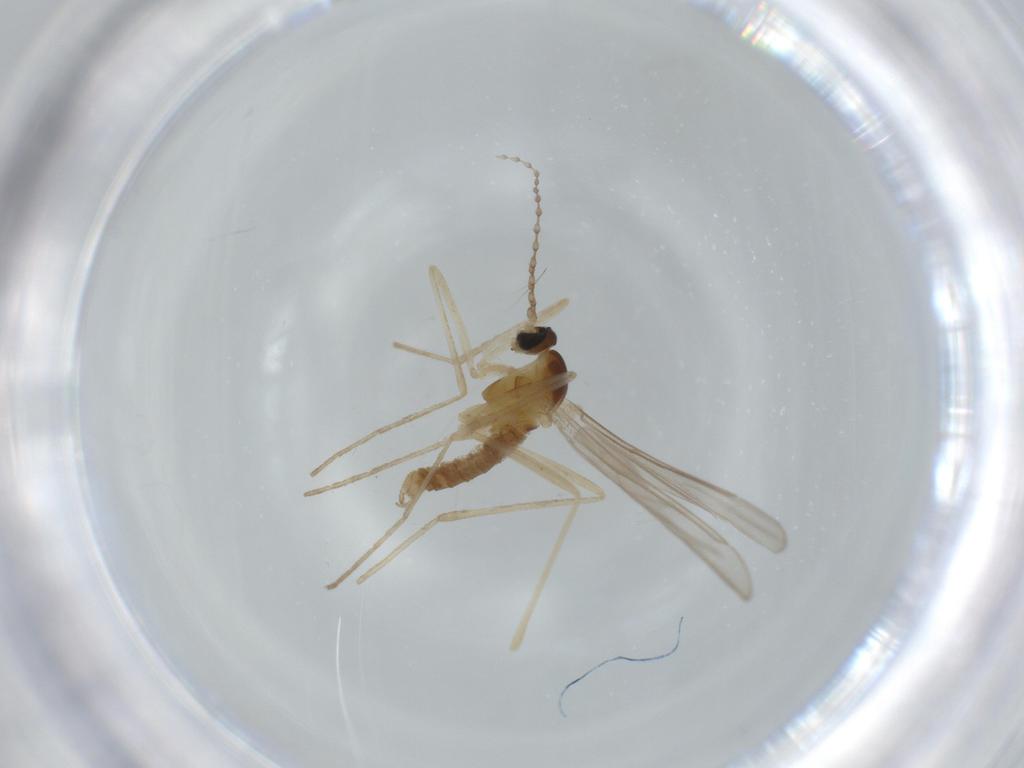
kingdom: Animalia
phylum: Arthropoda
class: Insecta
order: Diptera
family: Cecidomyiidae
